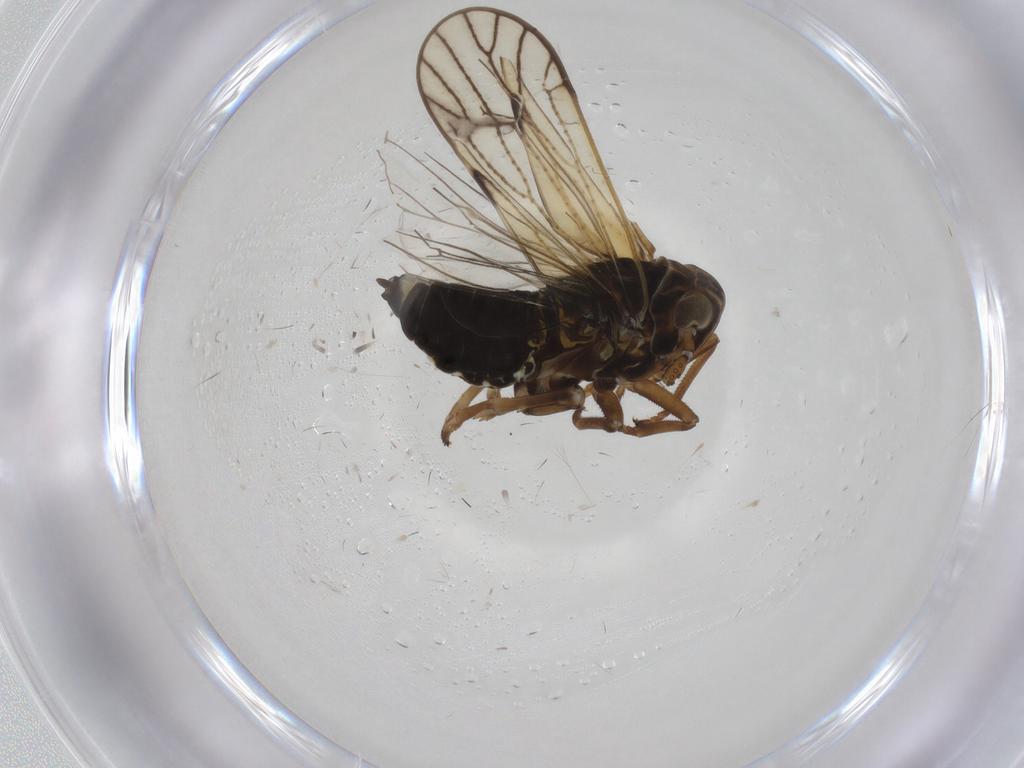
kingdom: Animalia
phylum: Arthropoda
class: Insecta
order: Hemiptera
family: Delphacidae
